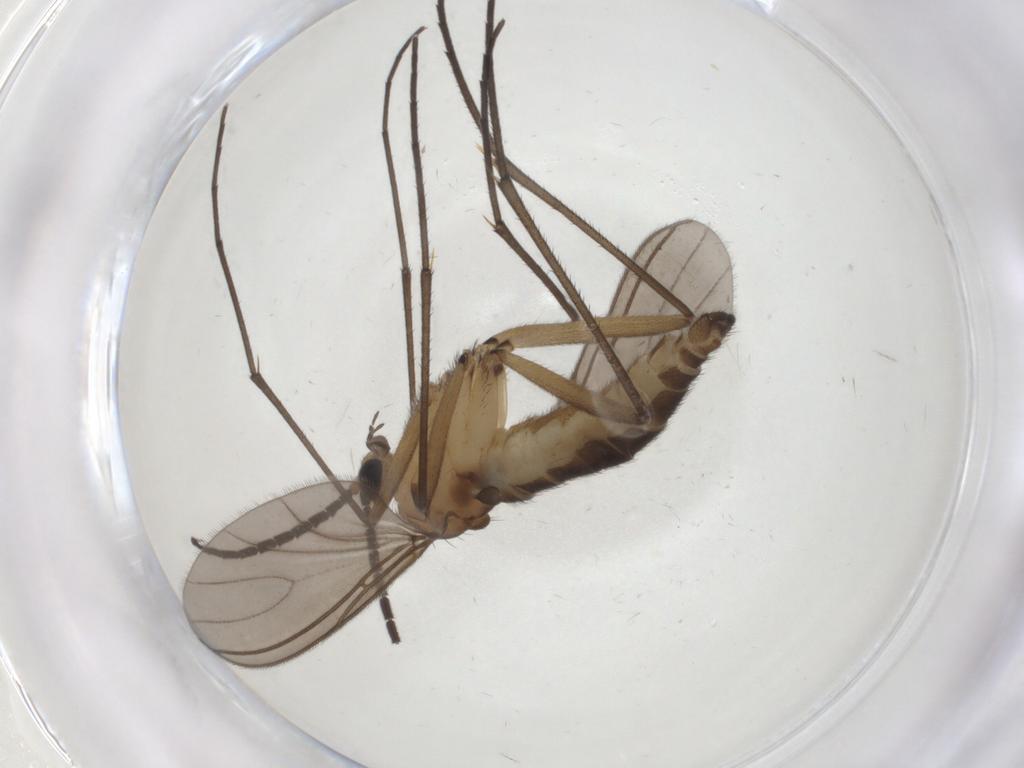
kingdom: Animalia
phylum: Arthropoda
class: Insecta
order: Diptera
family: Sciaridae
